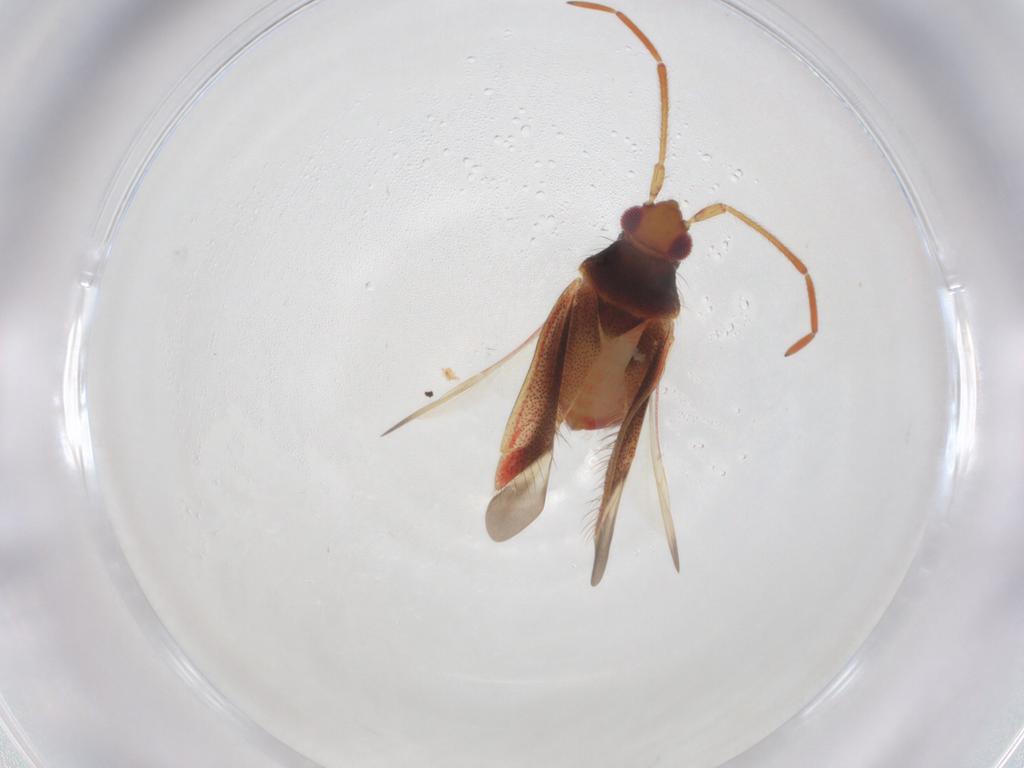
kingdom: Animalia
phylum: Arthropoda
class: Insecta
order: Hemiptera
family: Miridae
